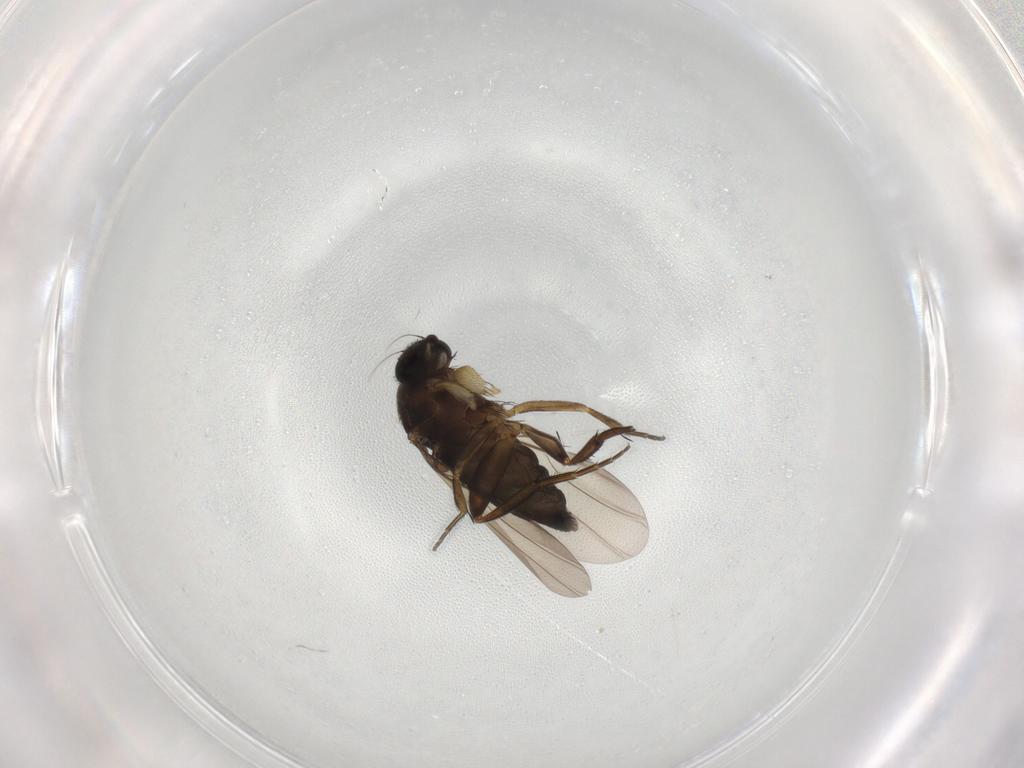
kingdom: Animalia
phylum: Arthropoda
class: Insecta
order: Diptera
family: Phoridae
